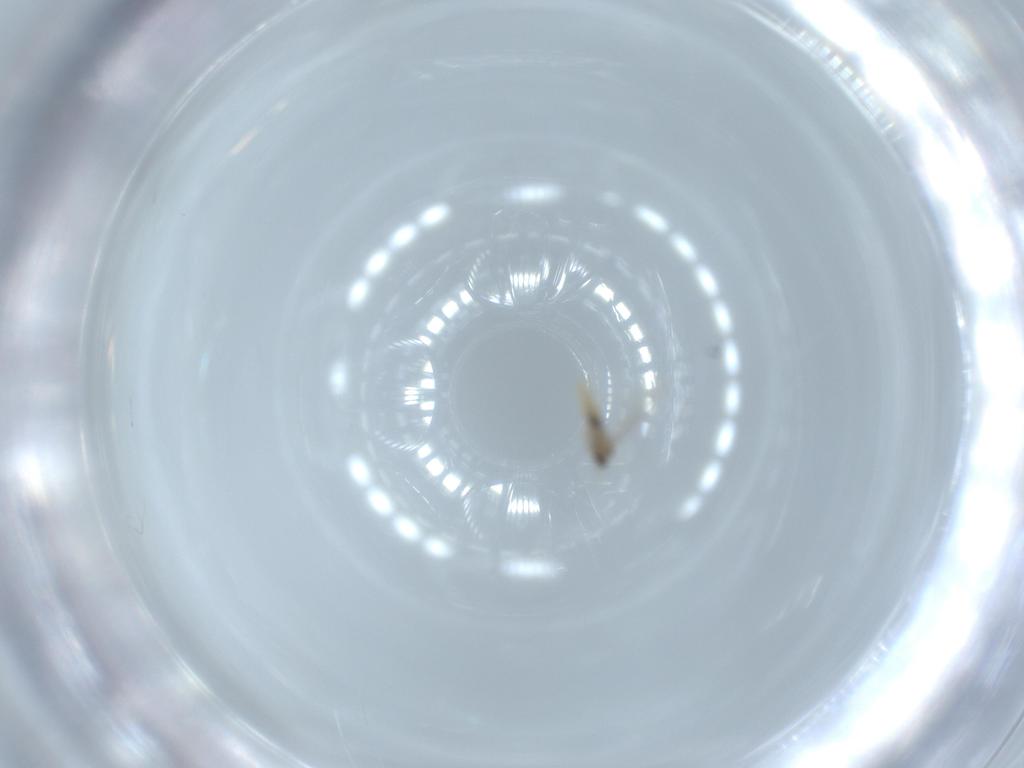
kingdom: Animalia
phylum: Arthropoda
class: Insecta
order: Diptera
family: Cecidomyiidae
